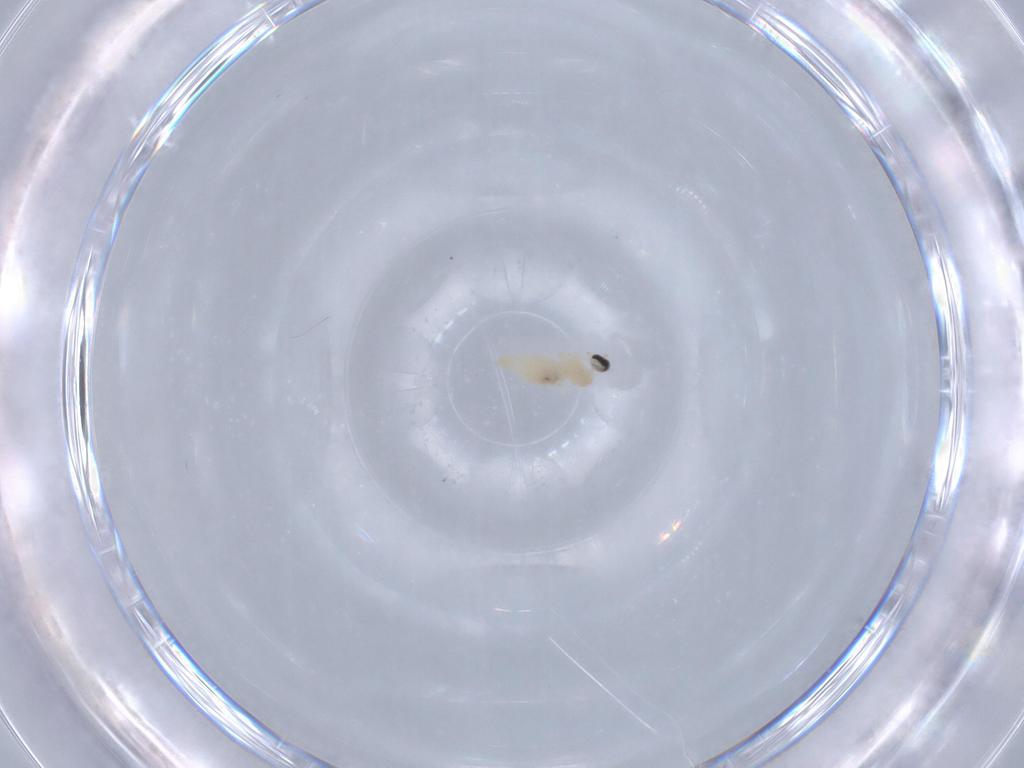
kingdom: Animalia
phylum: Arthropoda
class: Insecta
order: Diptera
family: Cecidomyiidae
